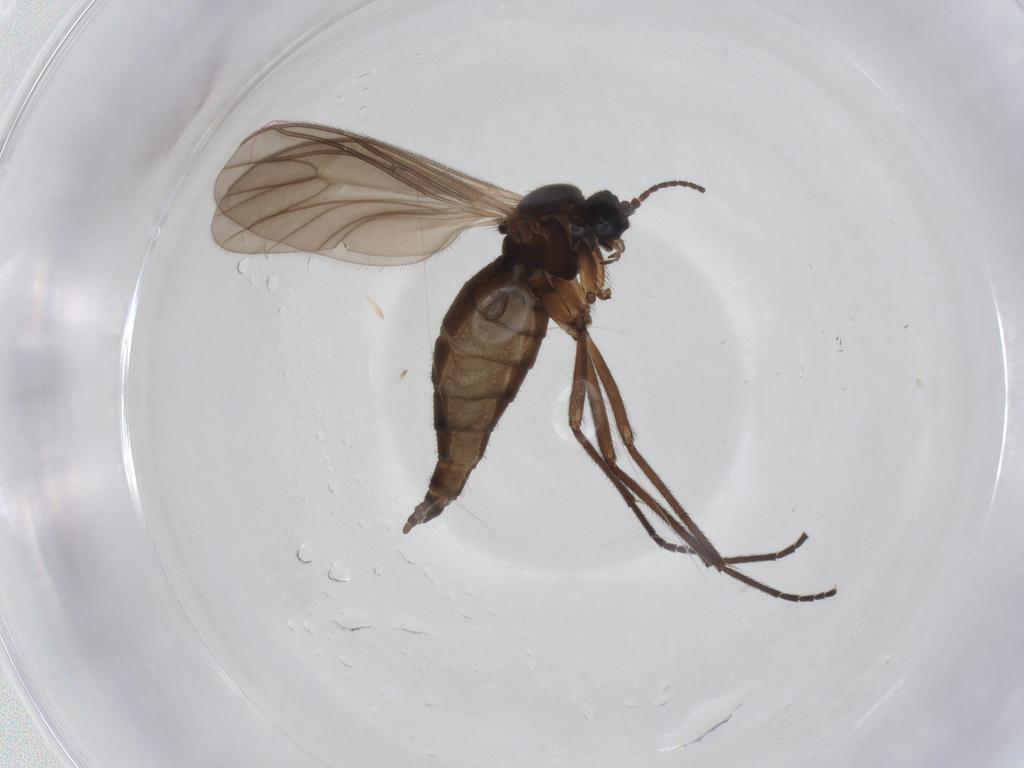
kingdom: Animalia
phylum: Arthropoda
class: Insecta
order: Diptera
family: Sciaridae
